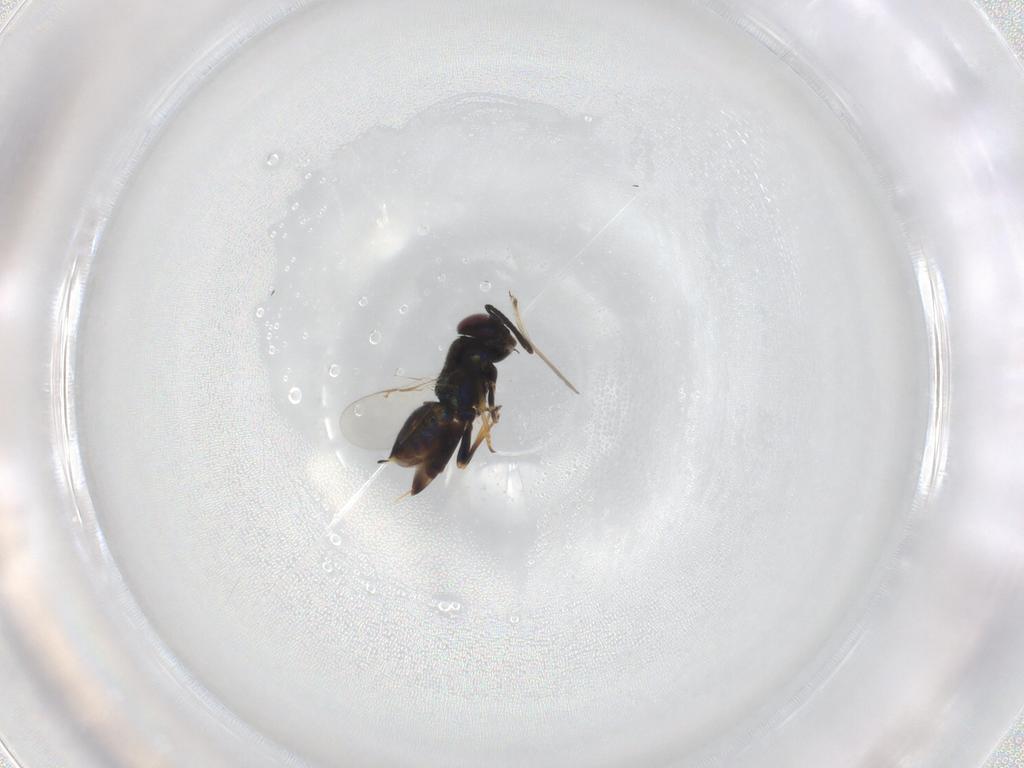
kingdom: Animalia
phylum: Arthropoda
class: Insecta
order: Hymenoptera
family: Encyrtidae
